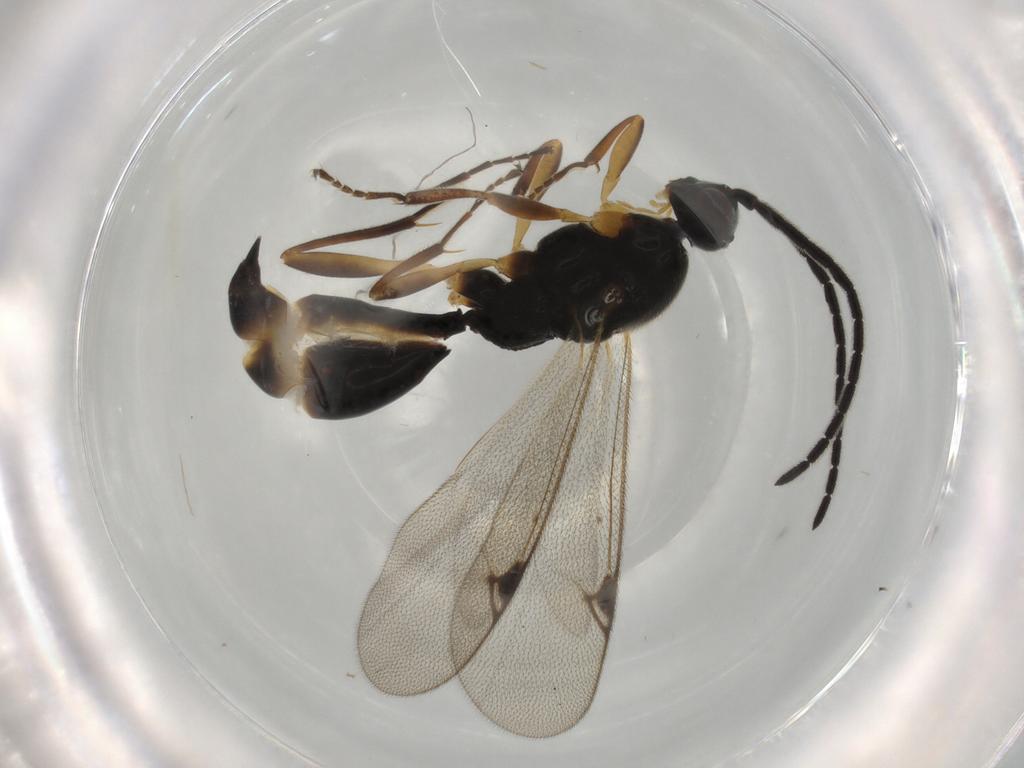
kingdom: Animalia
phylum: Arthropoda
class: Insecta
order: Hymenoptera
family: Proctotrupidae
